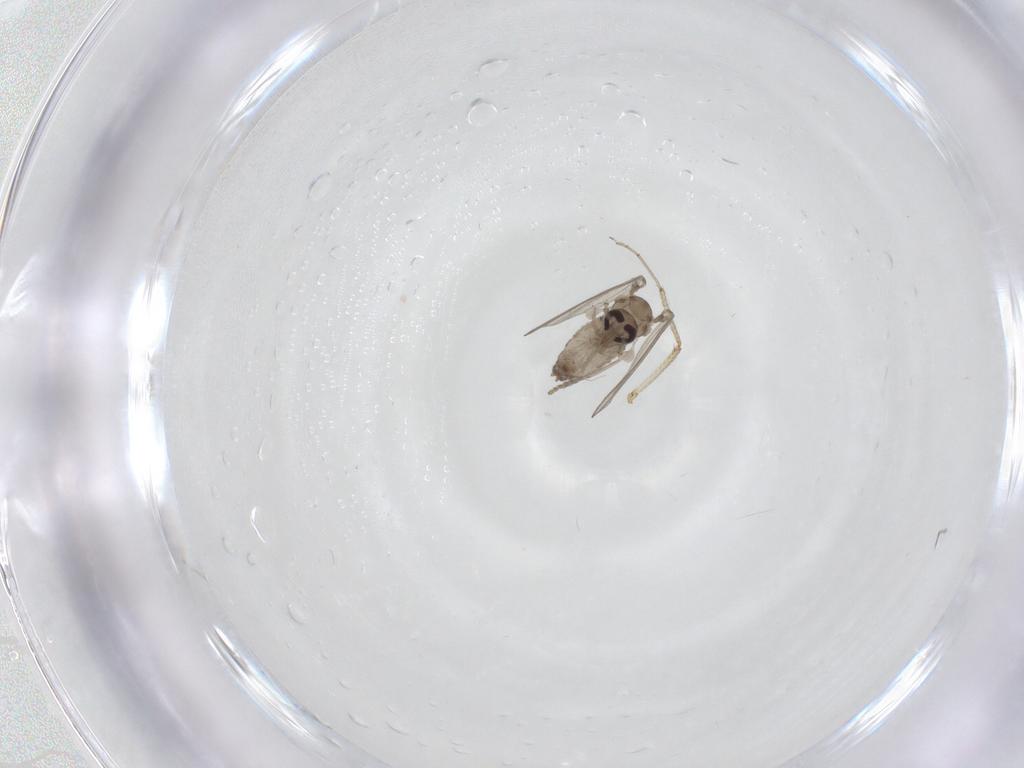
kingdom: Animalia
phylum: Arthropoda
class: Insecta
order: Diptera
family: Psychodidae
